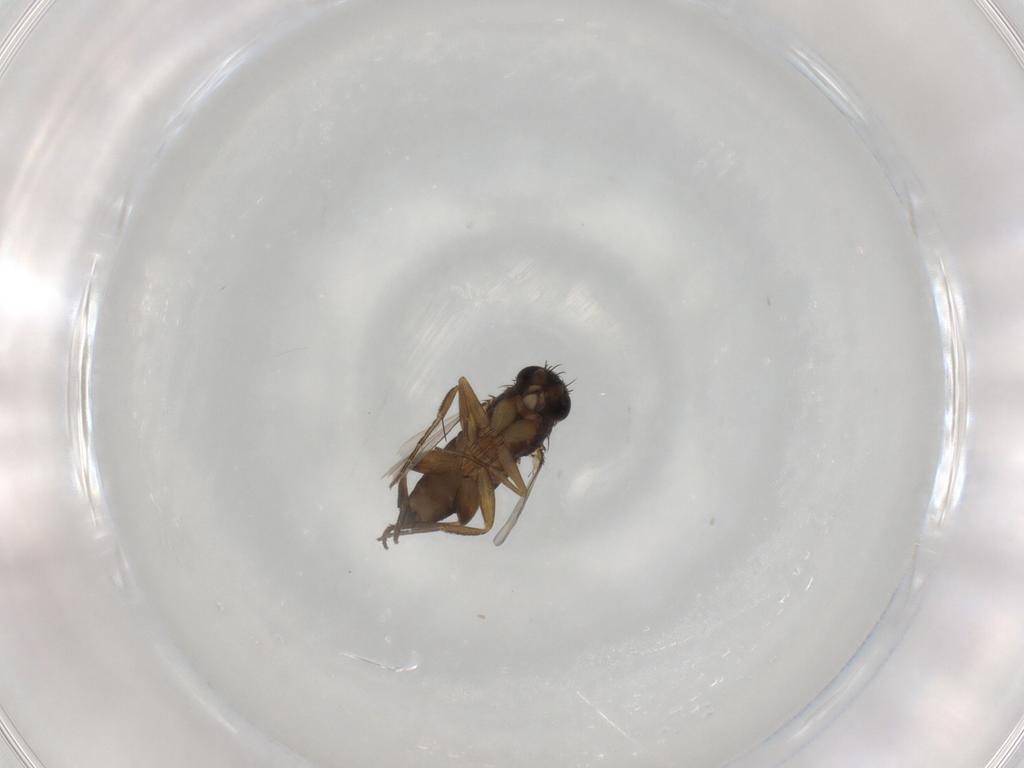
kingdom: Animalia
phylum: Arthropoda
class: Insecta
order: Diptera
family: Phoridae
